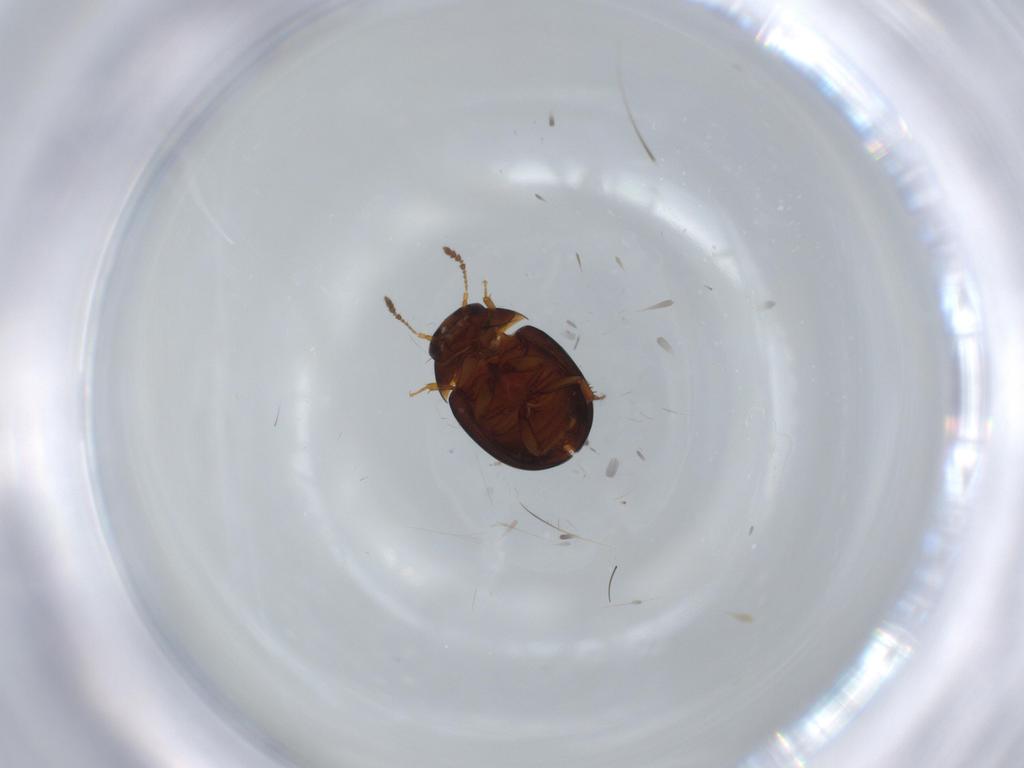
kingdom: Animalia
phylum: Arthropoda
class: Insecta
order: Coleoptera
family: Leiodidae
